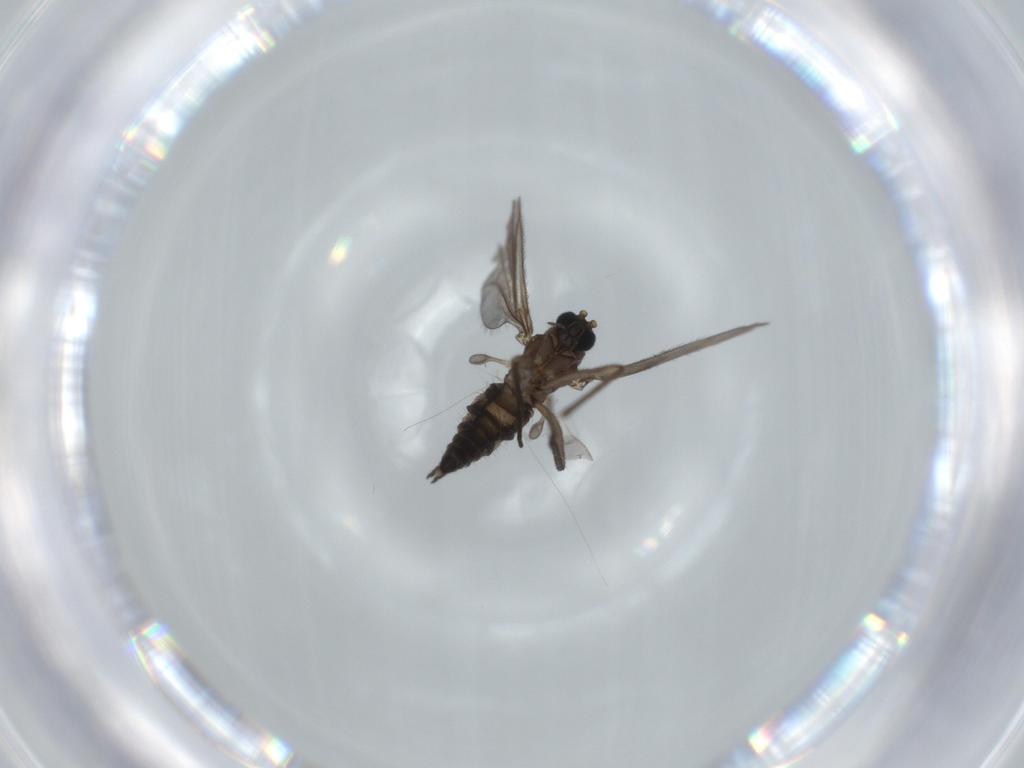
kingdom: Animalia
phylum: Arthropoda
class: Insecta
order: Diptera
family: Sciaridae
